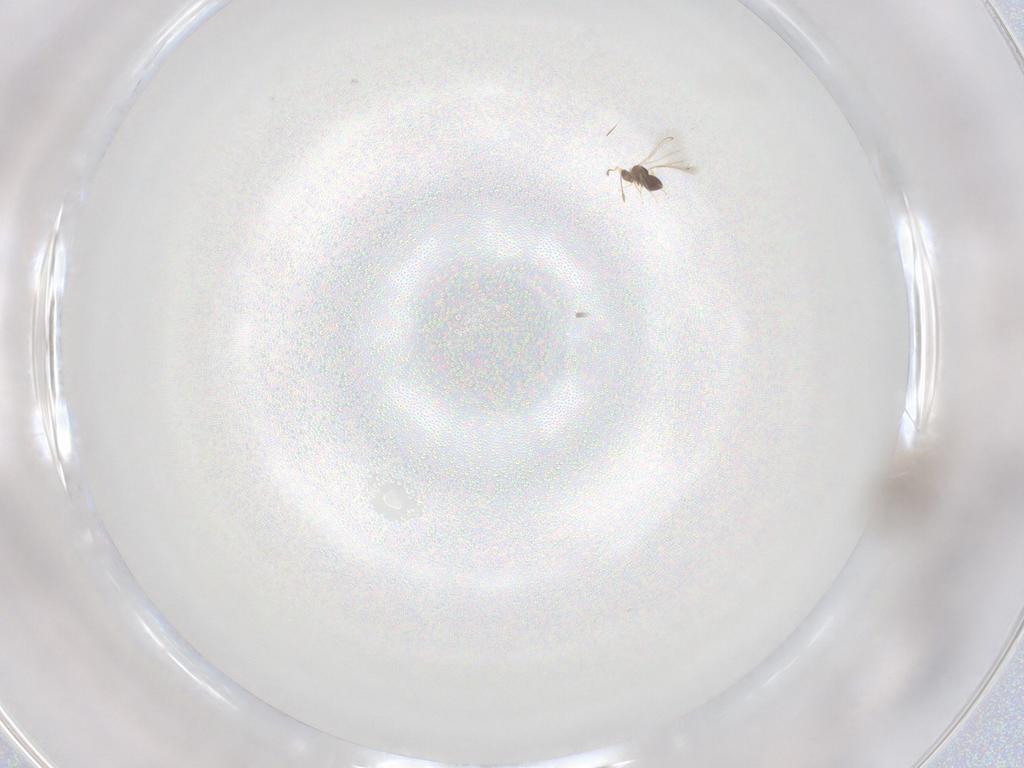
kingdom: Animalia
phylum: Arthropoda
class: Insecta
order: Hymenoptera
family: Mymaridae
